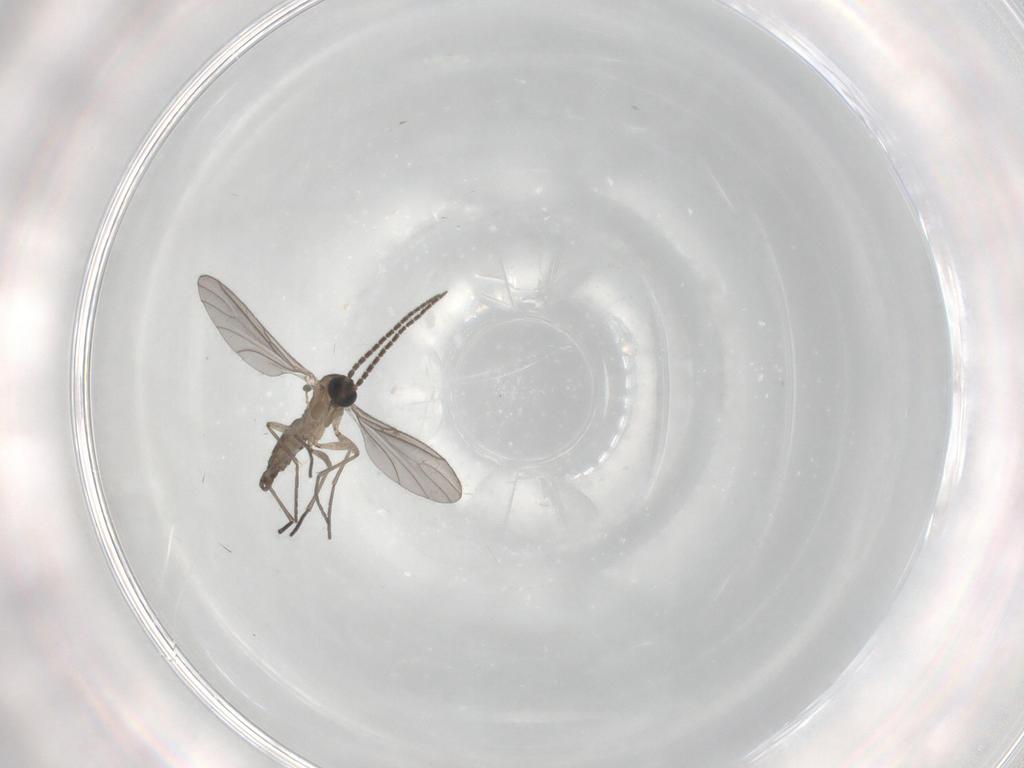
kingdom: Animalia
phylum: Arthropoda
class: Insecta
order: Diptera
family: Sciaridae
